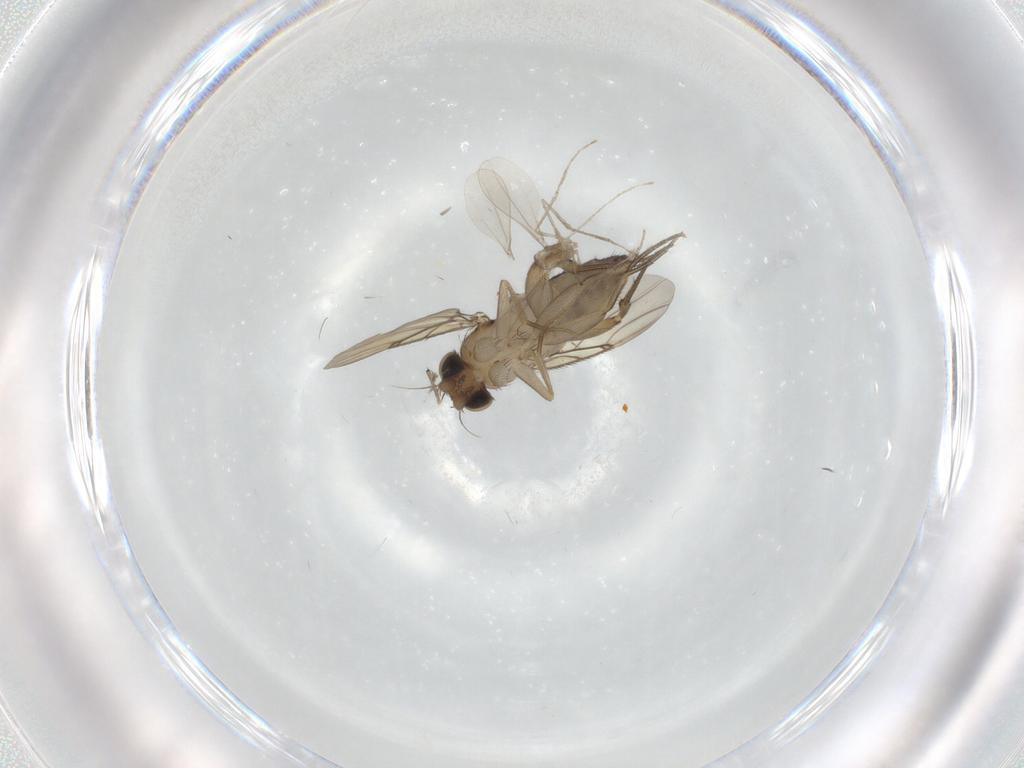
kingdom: Animalia
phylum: Arthropoda
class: Insecta
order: Diptera
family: Phoridae
